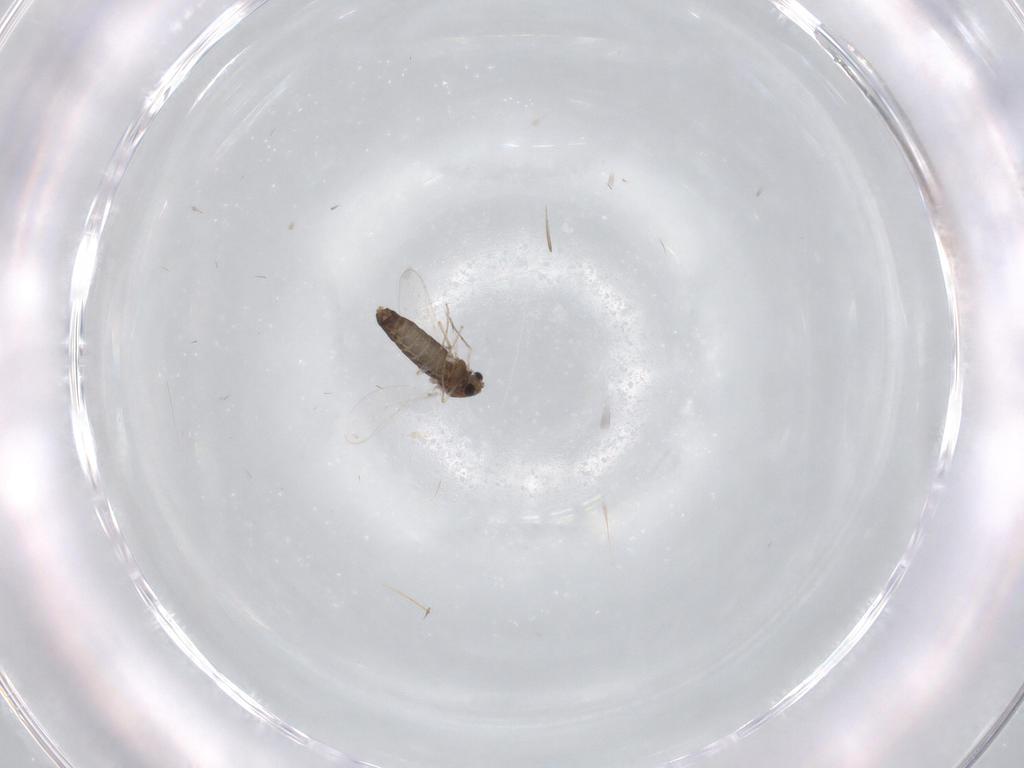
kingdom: Animalia
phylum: Arthropoda
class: Insecta
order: Diptera
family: Chironomidae
